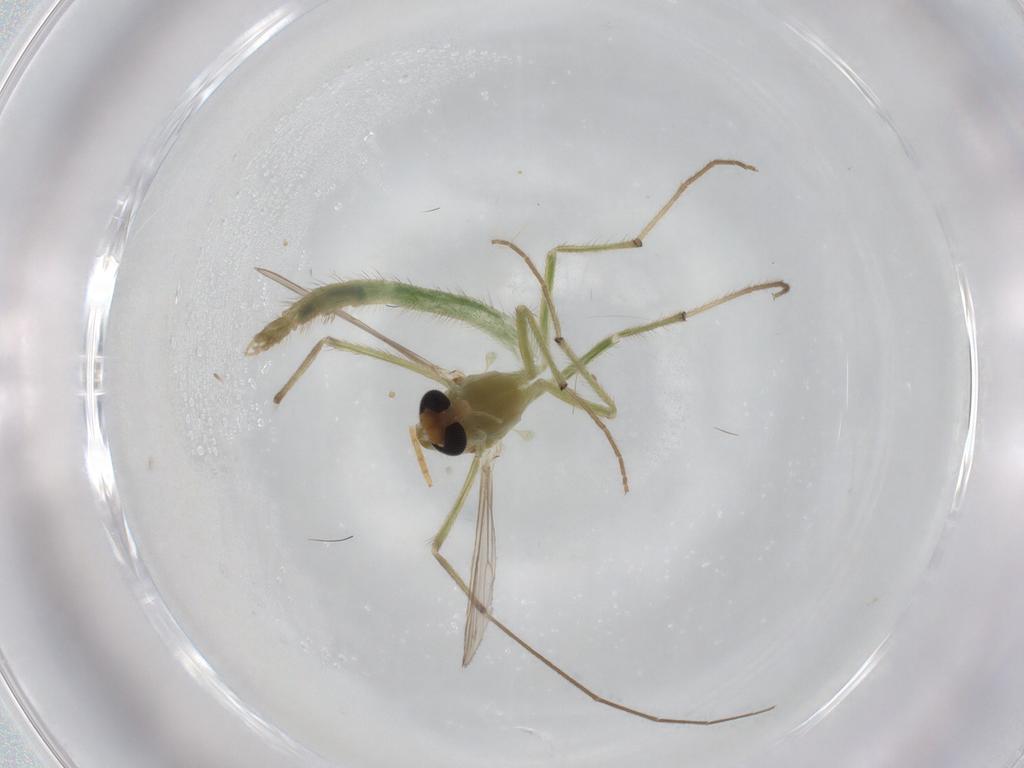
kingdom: Animalia
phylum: Arthropoda
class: Insecta
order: Diptera
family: Chironomidae
